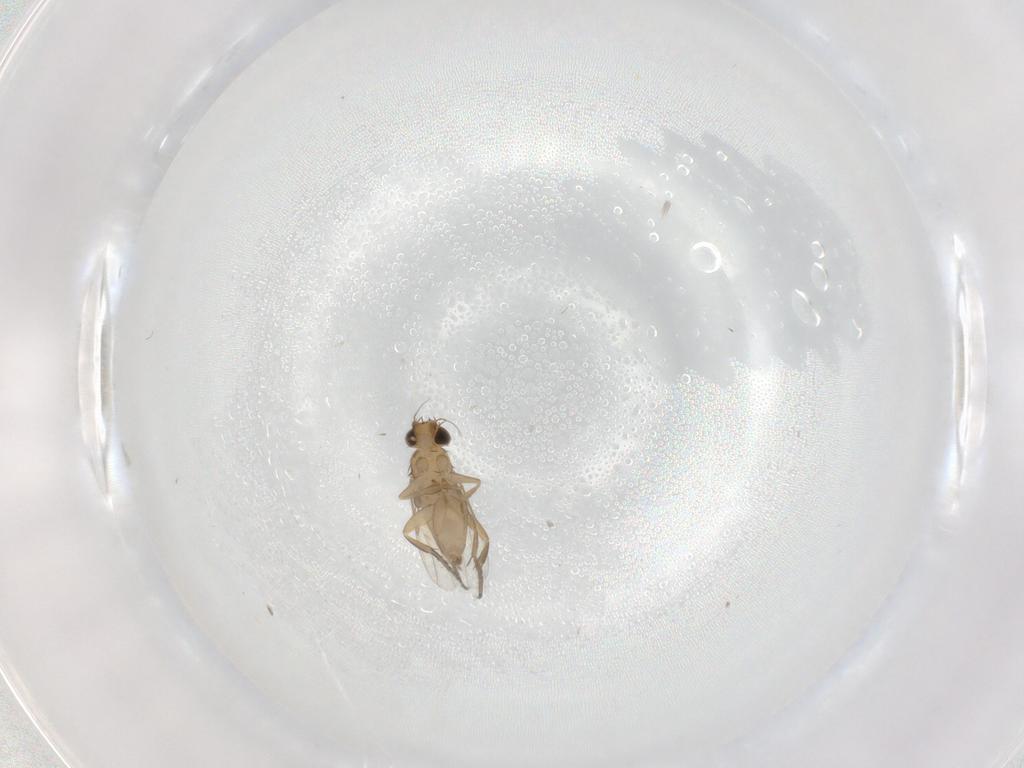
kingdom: Animalia
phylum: Arthropoda
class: Insecta
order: Diptera
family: Phoridae
